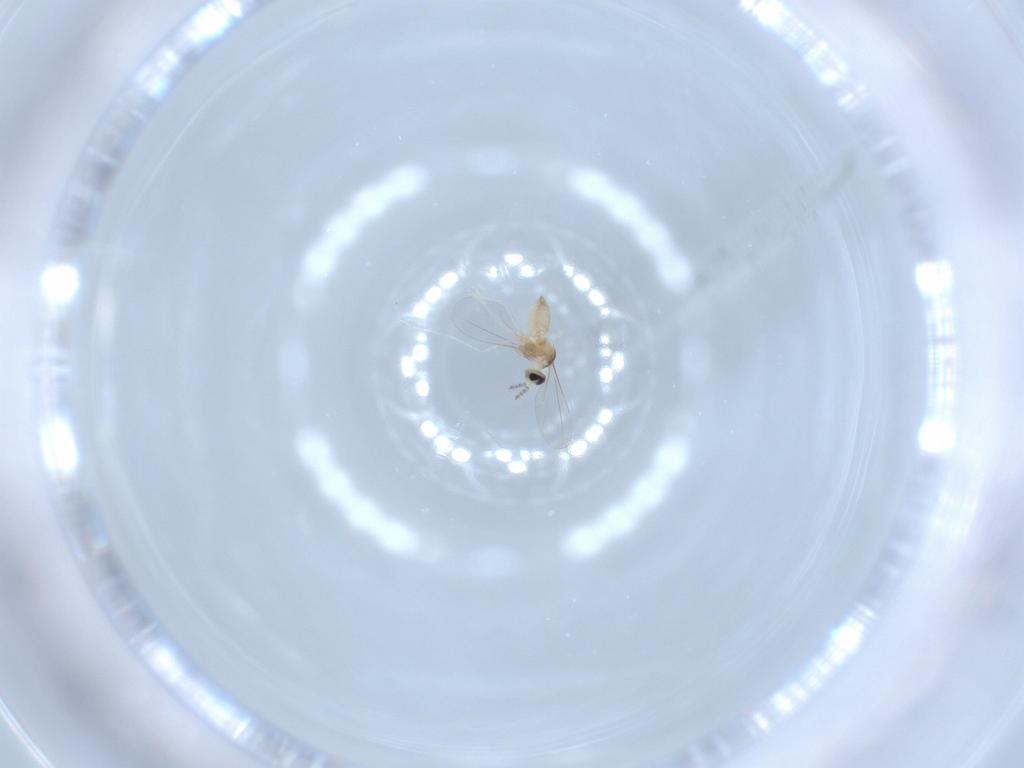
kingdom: Animalia
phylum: Arthropoda
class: Insecta
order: Diptera
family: Cecidomyiidae
